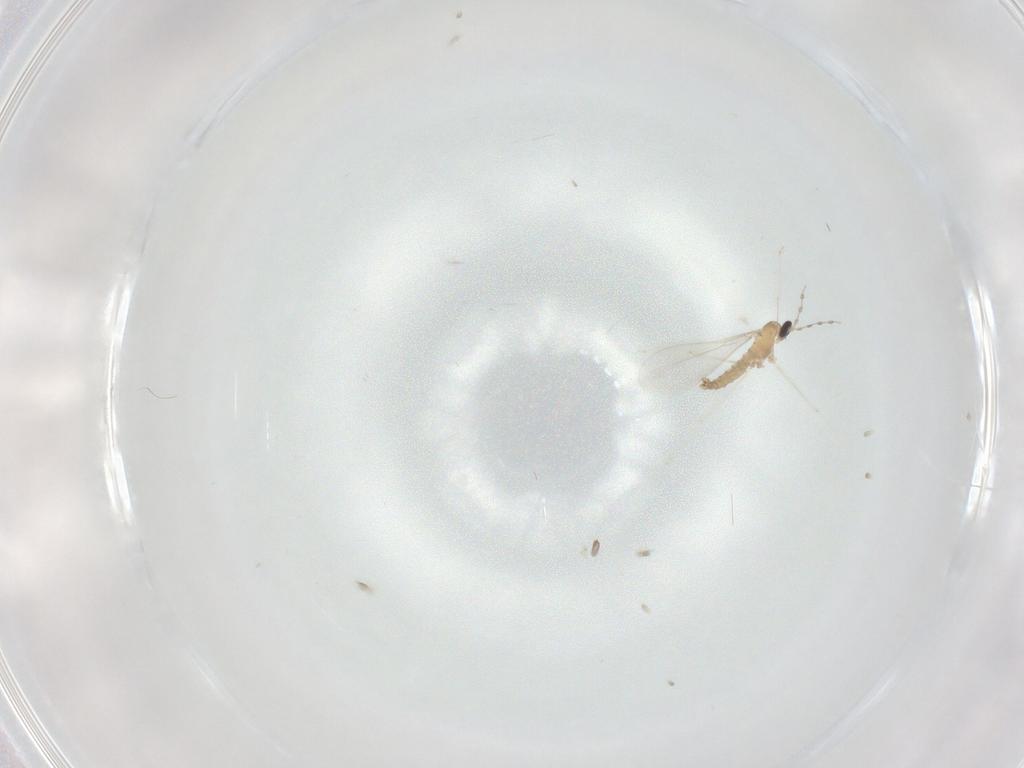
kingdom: Animalia
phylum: Arthropoda
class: Insecta
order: Diptera
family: Cecidomyiidae
